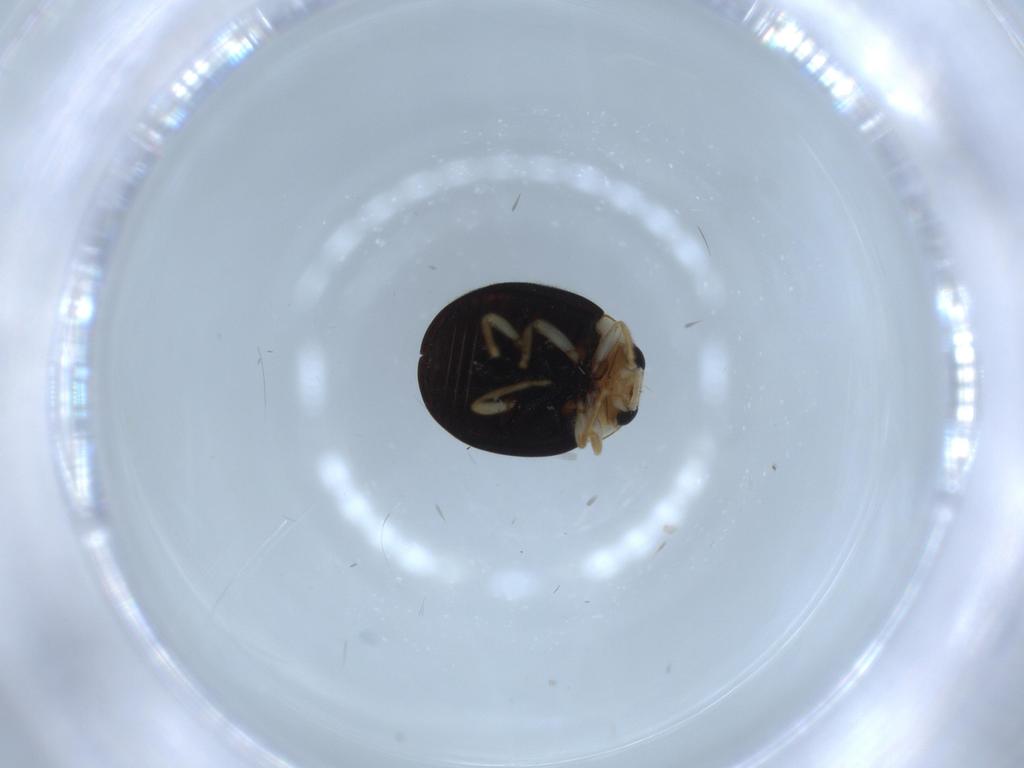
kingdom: Animalia
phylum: Arthropoda
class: Insecta
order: Coleoptera
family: Coccinellidae
